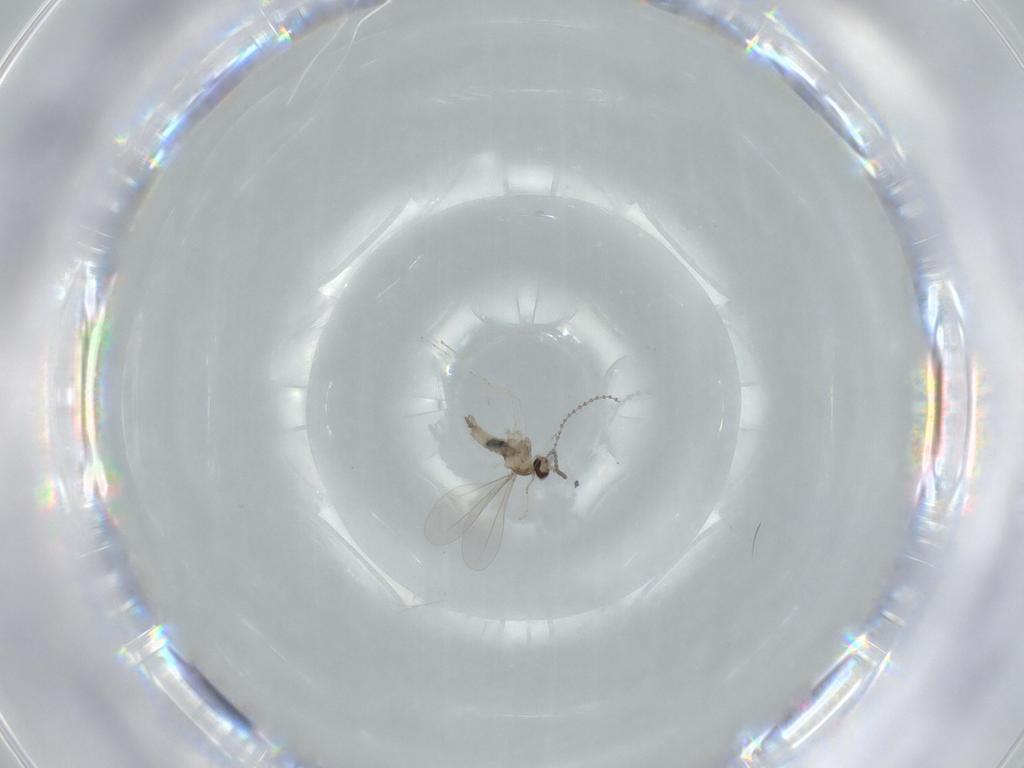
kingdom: Animalia
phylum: Arthropoda
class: Insecta
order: Diptera
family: Cecidomyiidae
